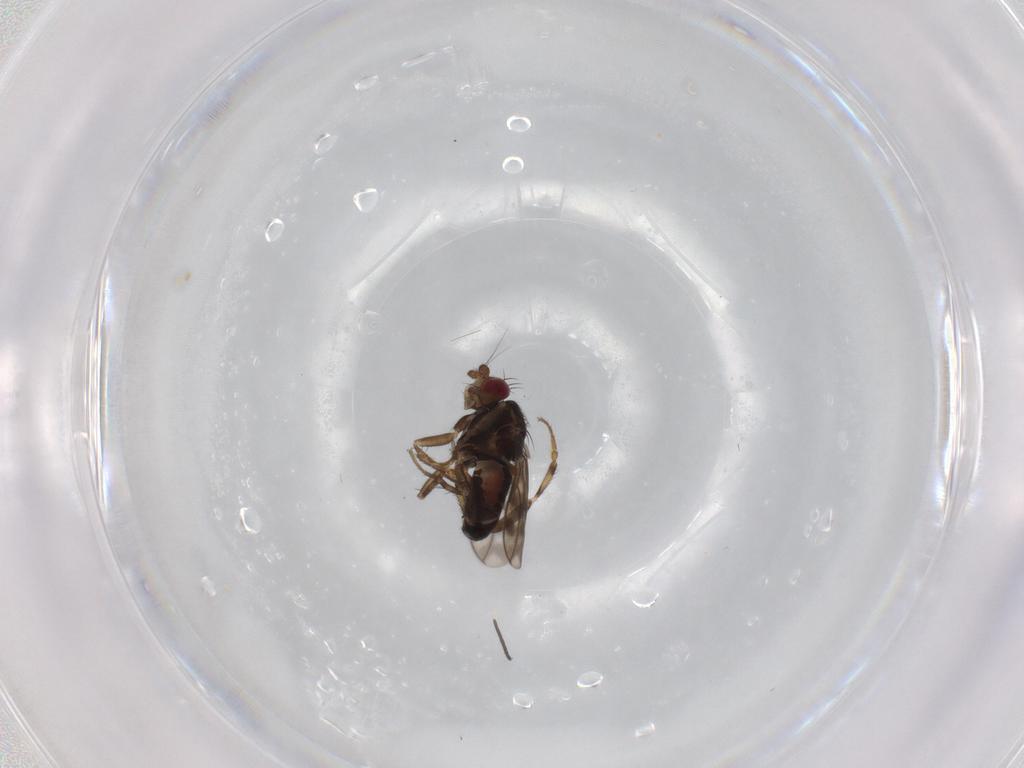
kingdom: Animalia
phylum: Arthropoda
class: Insecta
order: Diptera
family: Sphaeroceridae
